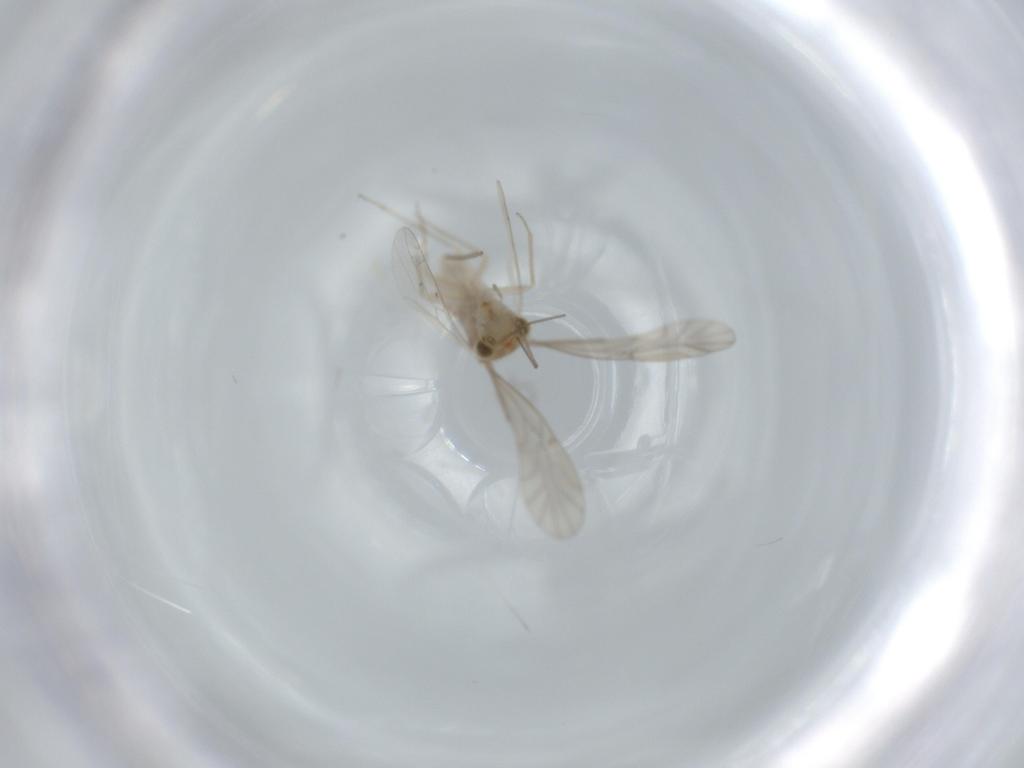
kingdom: Animalia
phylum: Arthropoda
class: Insecta
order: Psocodea
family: Lachesillidae
